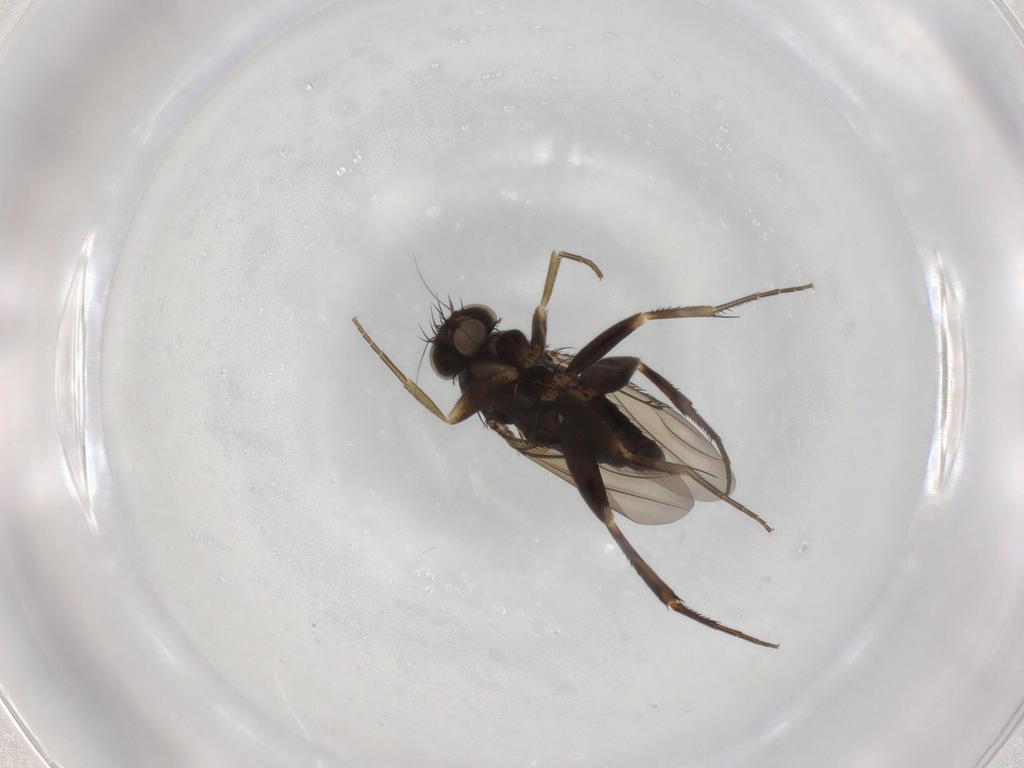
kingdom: Animalia
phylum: Arthropoda
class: Insecta
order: Diptera
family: Phoridae
